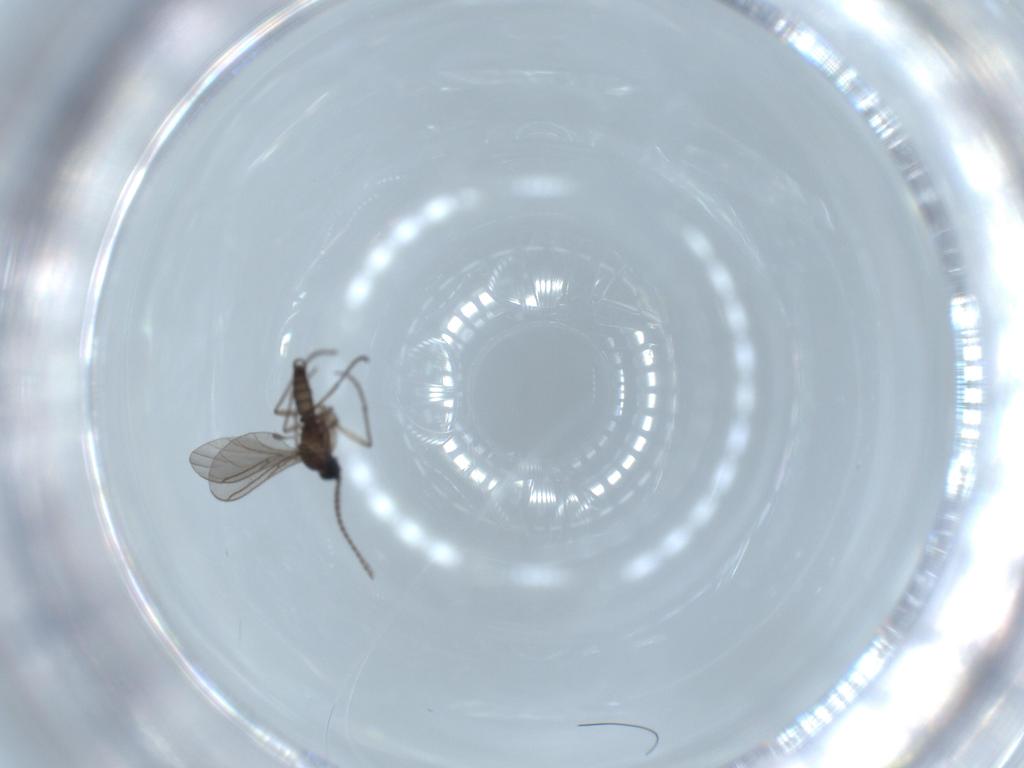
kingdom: Animalia
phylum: Arthropoda
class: Insecta
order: Diptera
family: Sciaridae
